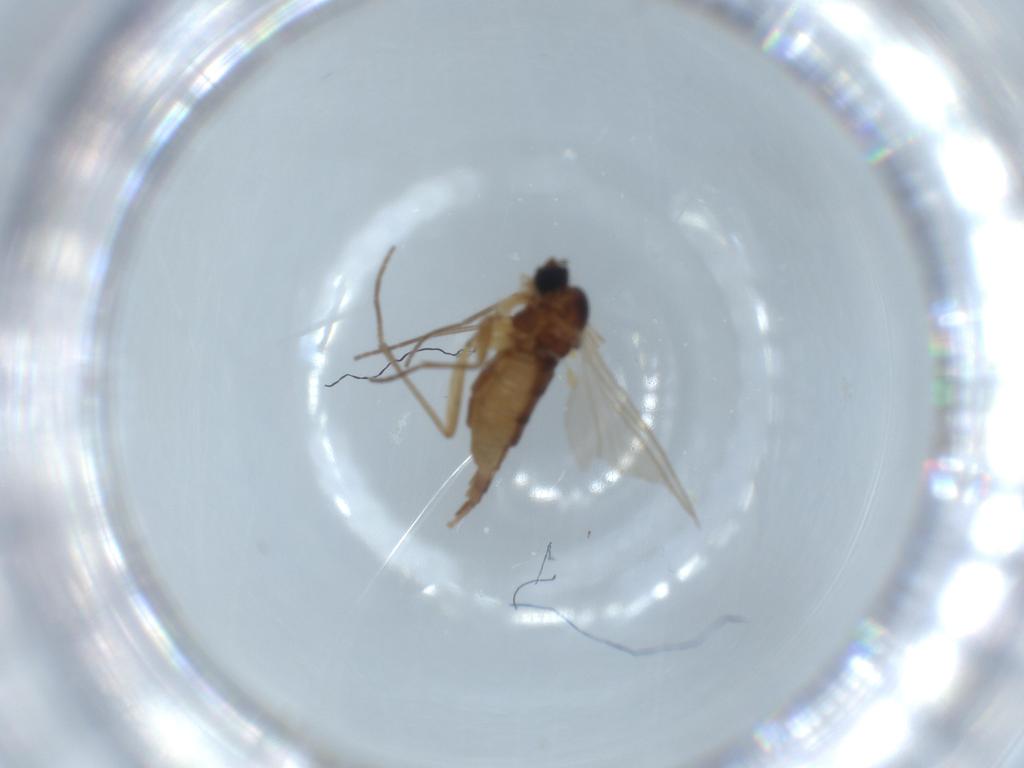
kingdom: Animalia
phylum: Arthropoda
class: Insecta
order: Diptera
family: Sciaridae
